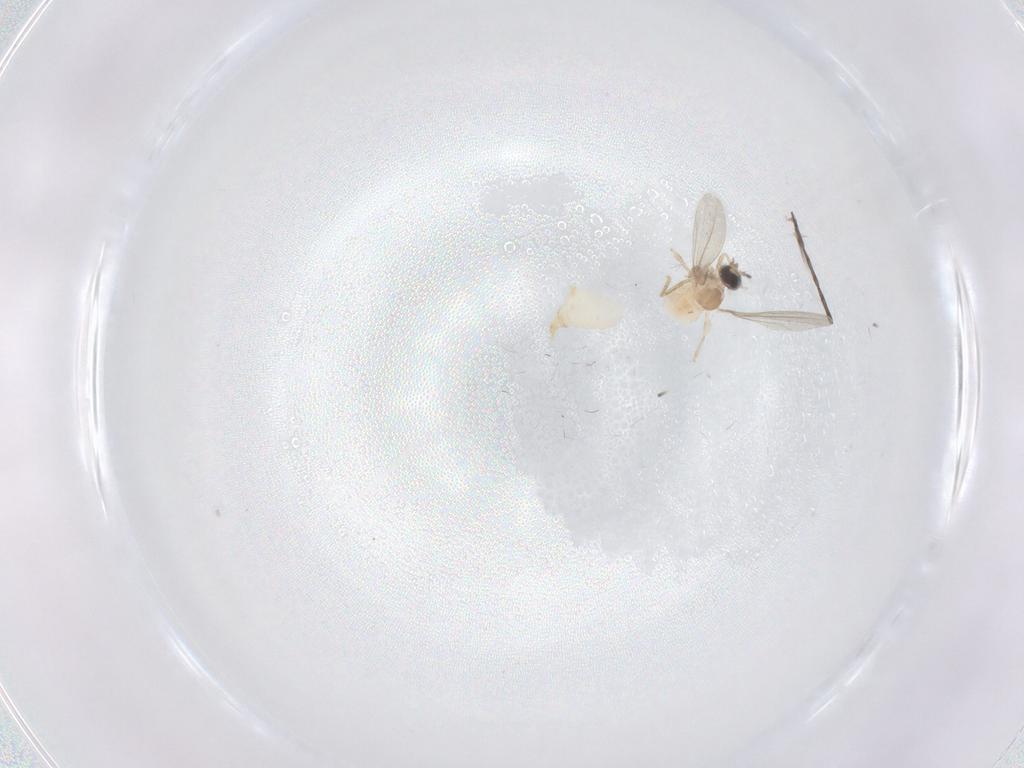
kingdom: Animalia
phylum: Arthropoda
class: Insecta
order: Diptera
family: Cecidomyiidae
